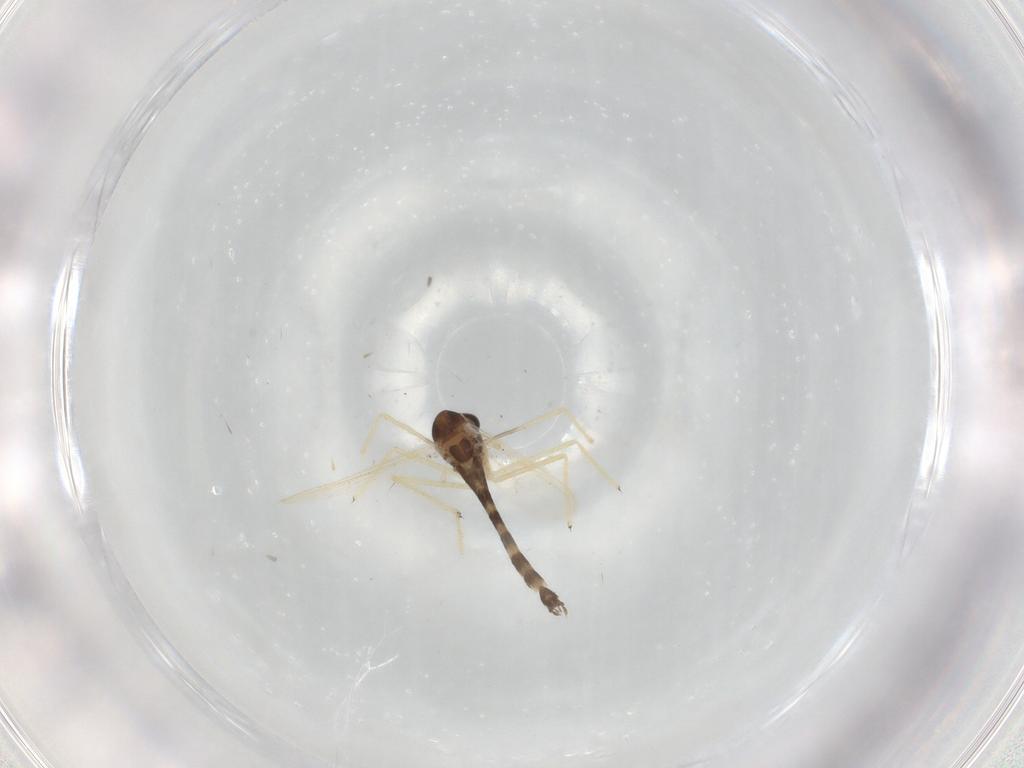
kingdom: Animalia
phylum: Arthropoda
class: Insecta
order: Diptera
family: Chironomidae
